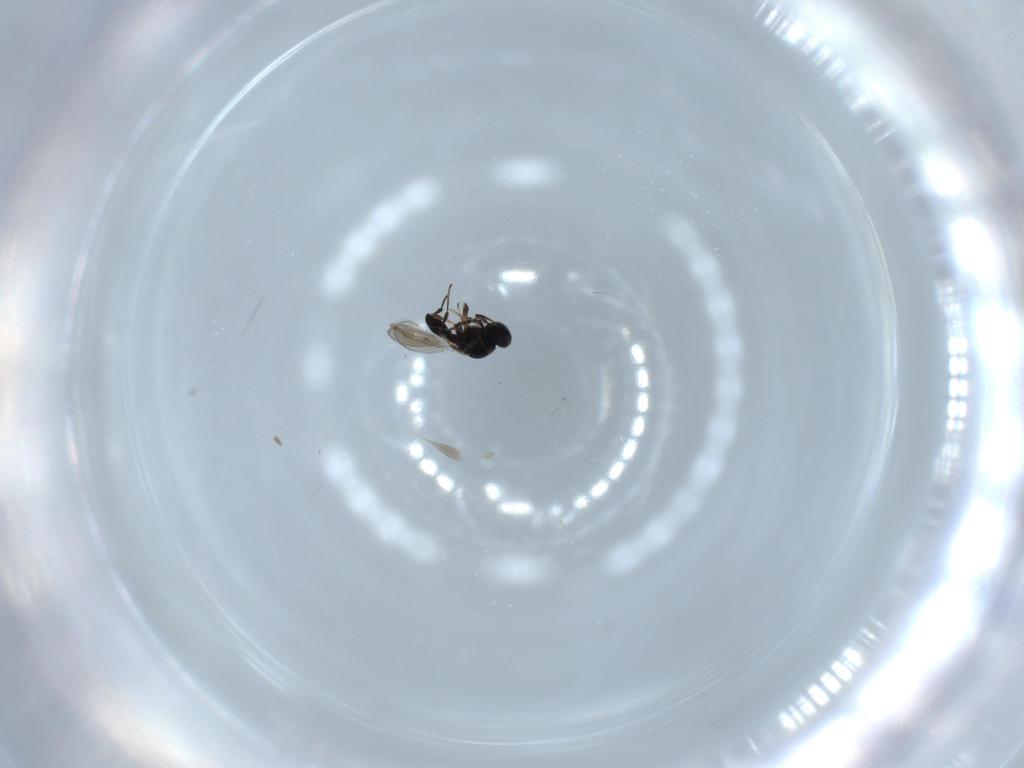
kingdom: Animalia
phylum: Arthropoda
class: Insecta
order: Hymenoptera
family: Platygastridae
